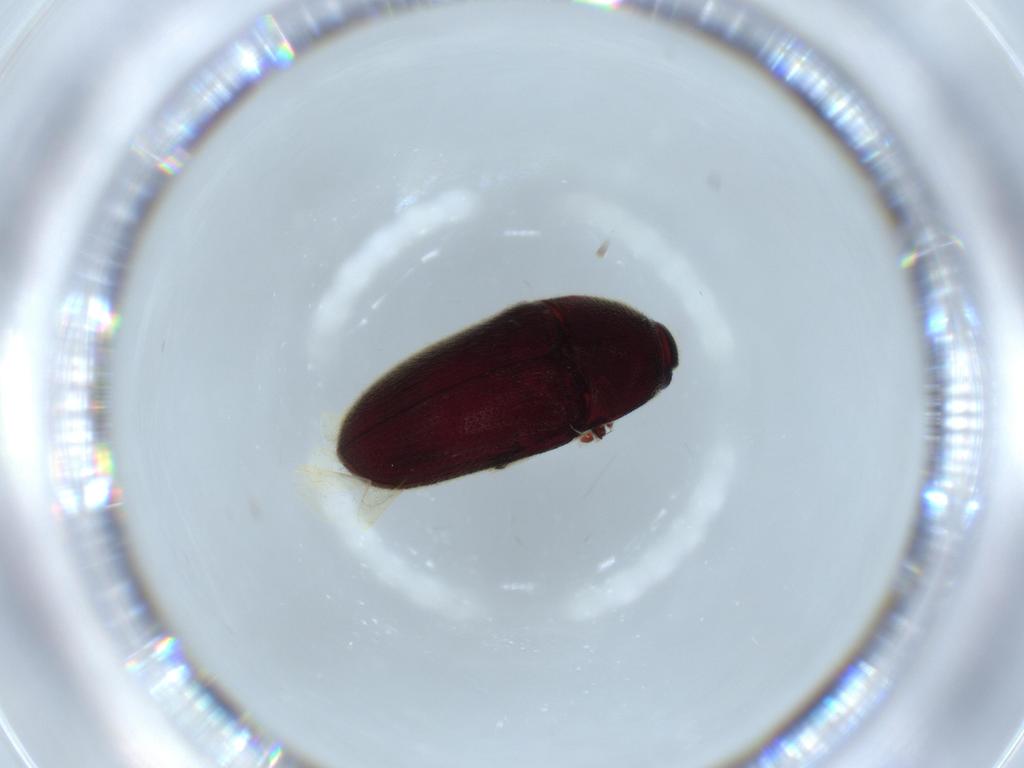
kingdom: Animalia
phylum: Arthropoda
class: Insecta
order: Coleoptera
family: Throscidae
